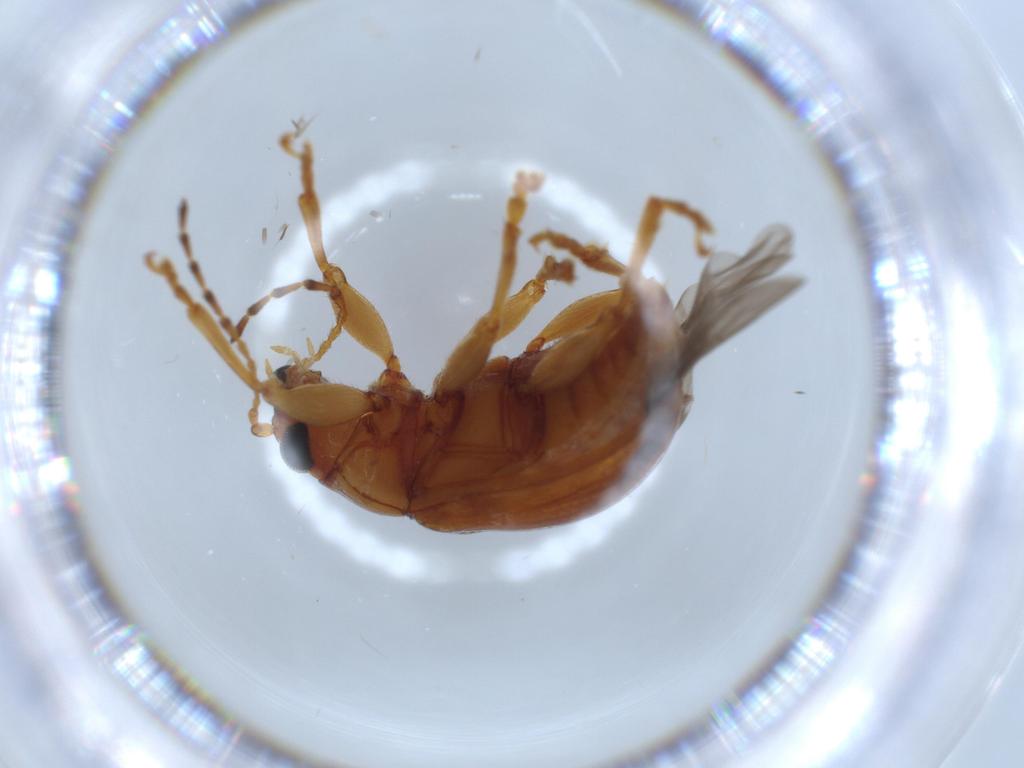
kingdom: Animalia
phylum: Arthropoda
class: Insecta
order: Coleoptera
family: Chrysomelidae
